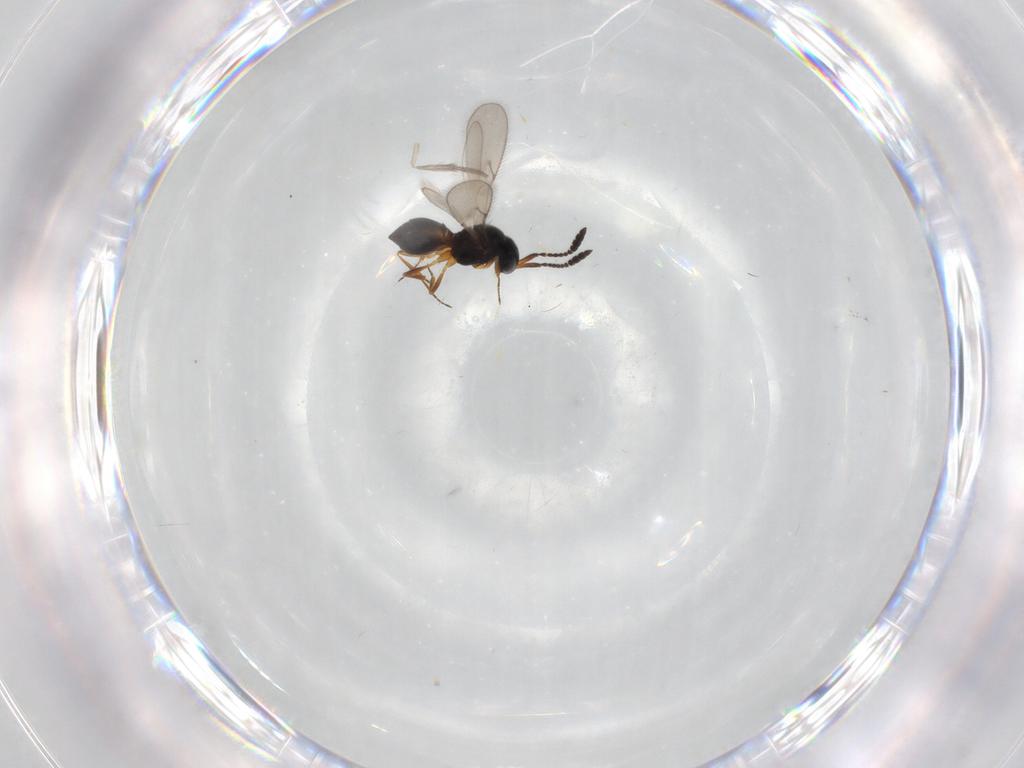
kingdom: Animalia
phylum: Arthropoda
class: Insecta
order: Hymenoptera
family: Scelionidae
